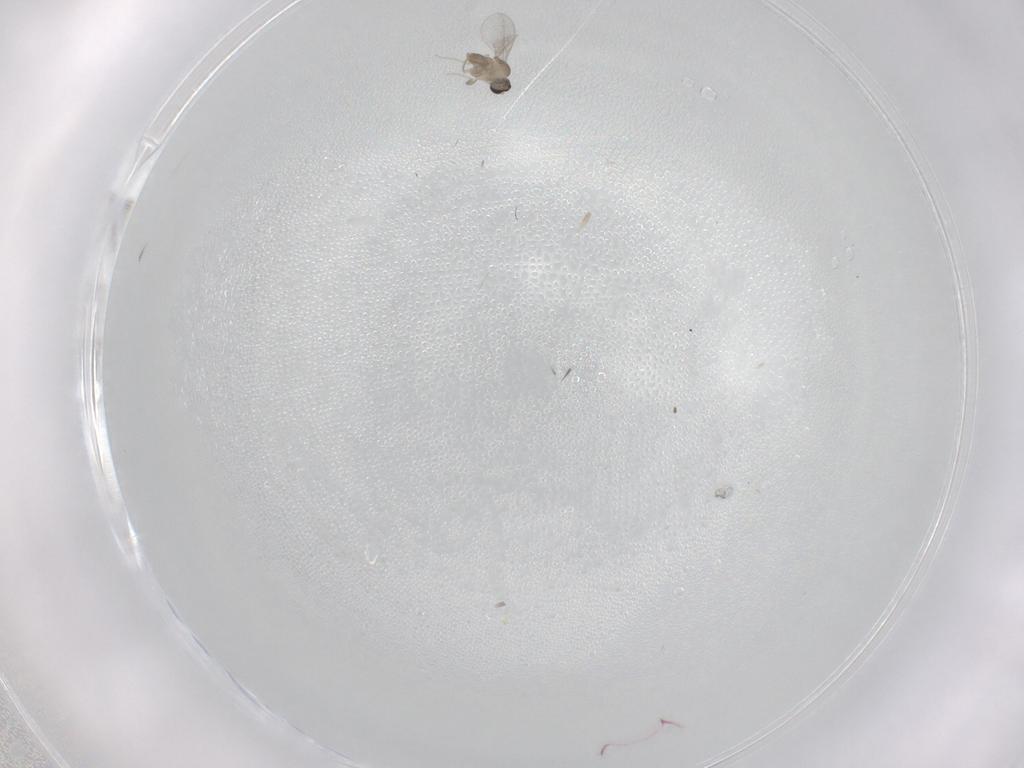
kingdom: Animalia
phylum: Arthropoda
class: Insecta
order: Diptera
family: Cecidomyiidae
